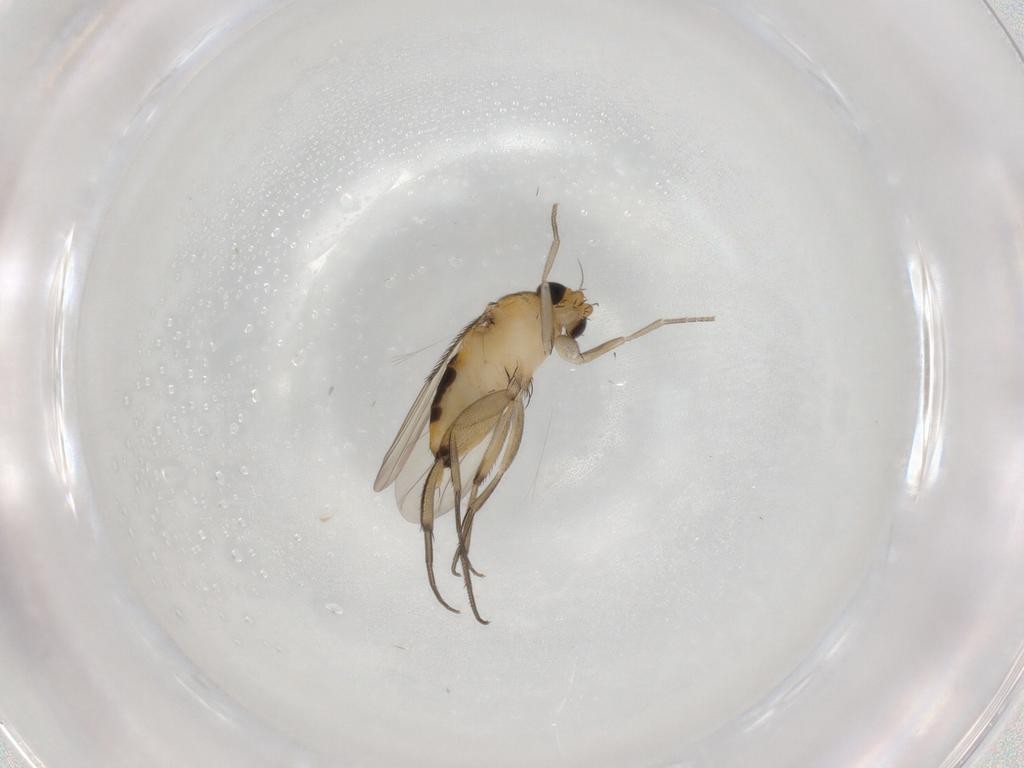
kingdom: Animalia
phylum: Arthropoda
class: Insecta
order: Diptera
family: Phoridae
